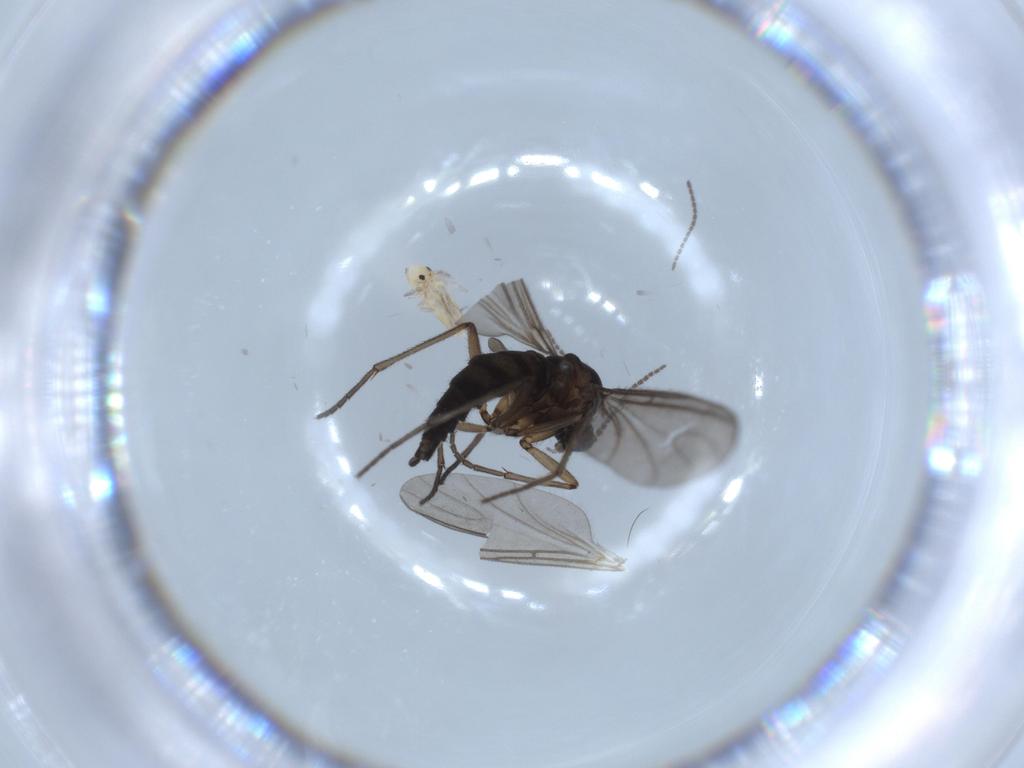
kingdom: Animalia
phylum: Arthropoda
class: Insecta
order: Diptera
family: Sciaridae
